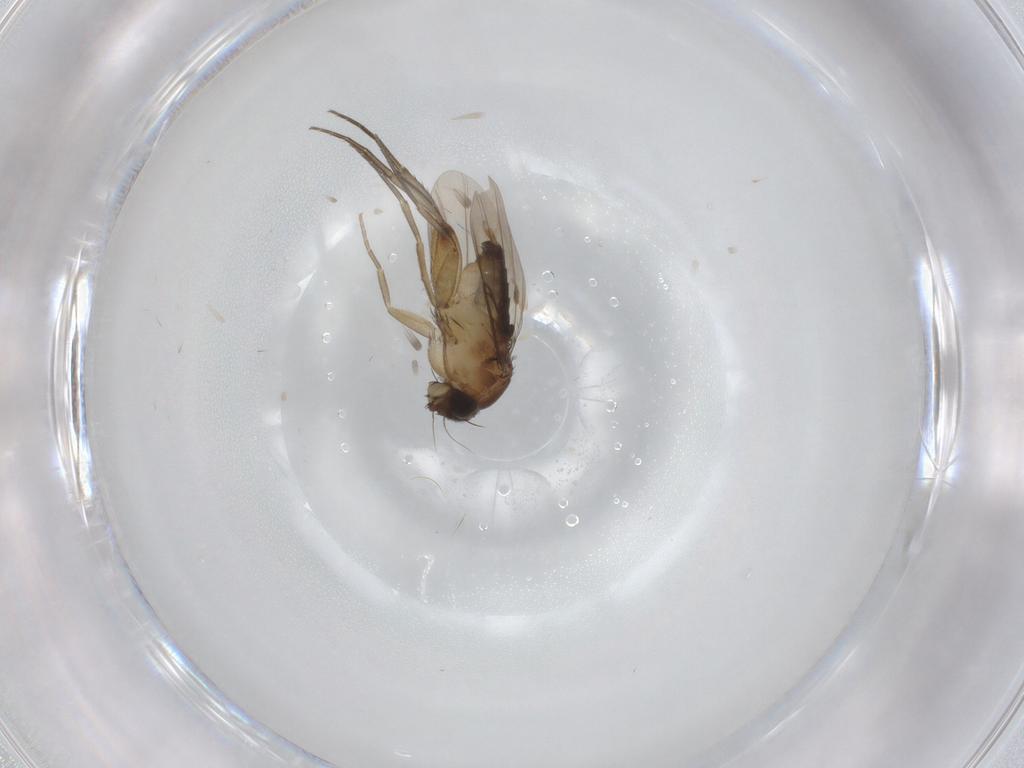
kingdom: Animalia
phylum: Arthropoda
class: Insecta
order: Diptera
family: Phoridae
